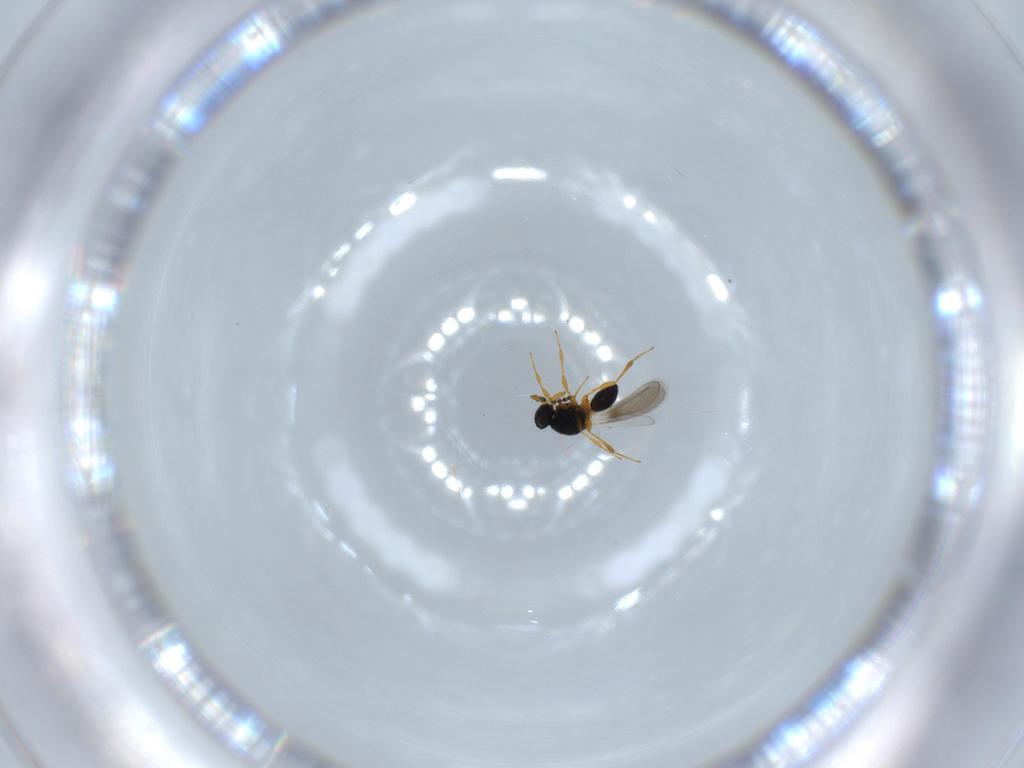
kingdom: Animalia
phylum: Arthropoda
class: Insecta
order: Hymenoptera
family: Platygastridae
